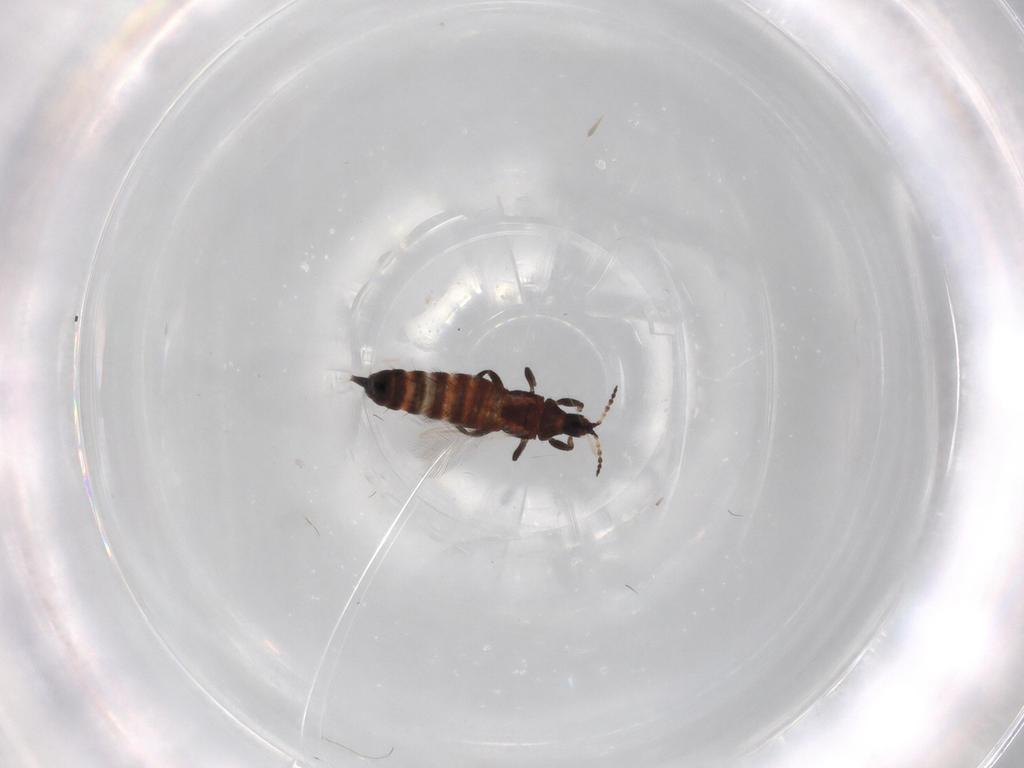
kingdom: Animalia
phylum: Arthropoda
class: Insecta
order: Thysanoptera
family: Phlaeothripidae
